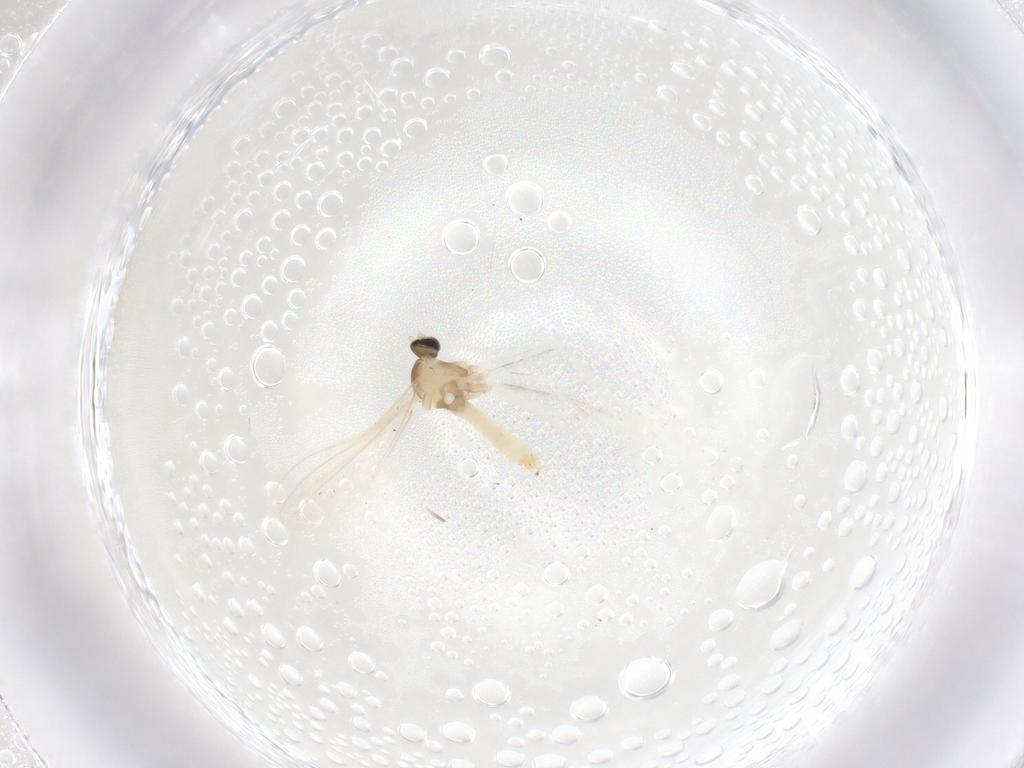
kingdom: Animalia
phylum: Arthropoda
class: Insecta
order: Diptera
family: Cecidomyiidae
